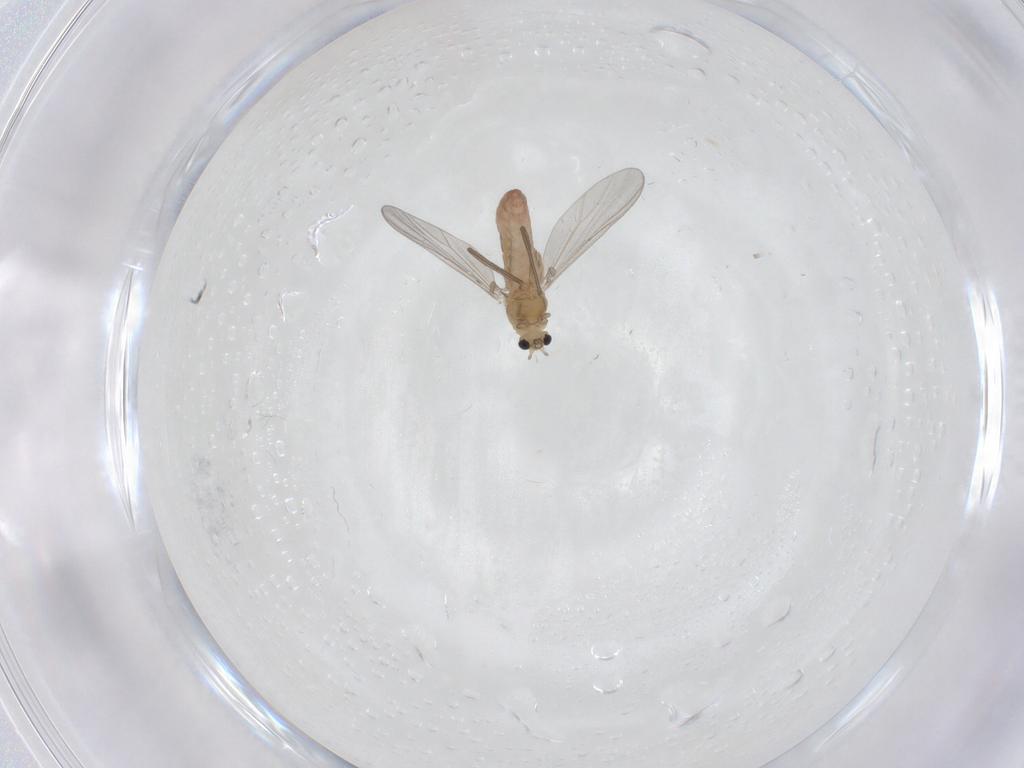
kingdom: Animalia
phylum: Arthropoda
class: Insecta
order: Diptera
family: Chironomidae
